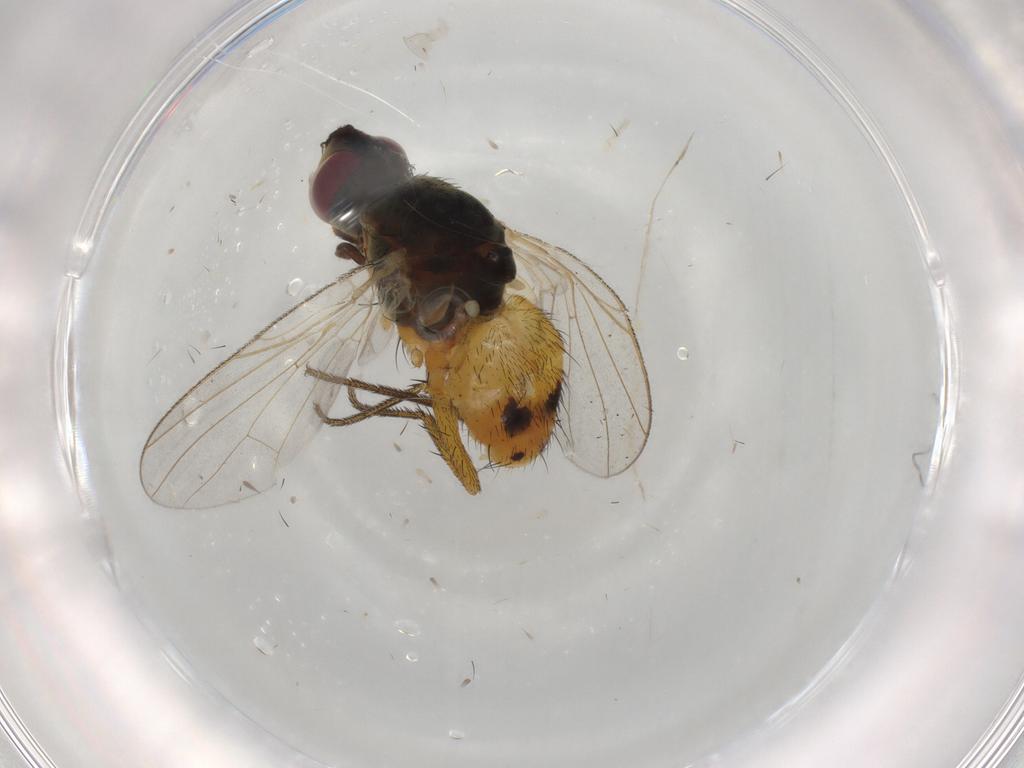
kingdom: Animalia
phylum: Arthropoda
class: Insecta
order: Diptera
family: Muscidae
